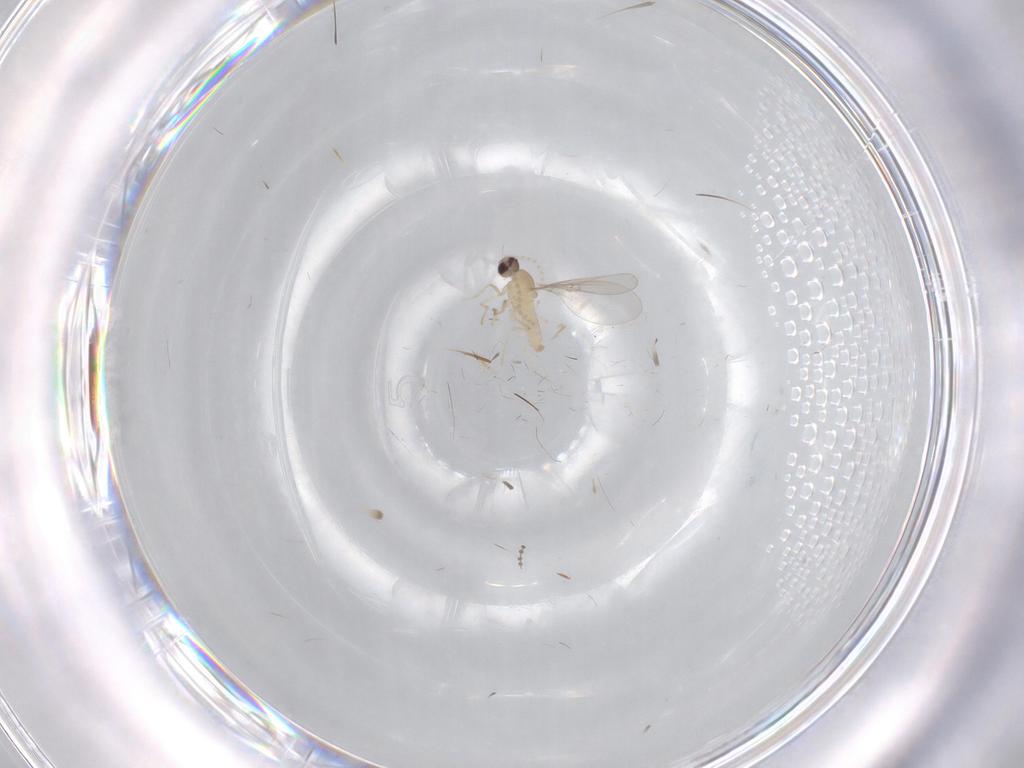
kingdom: Animalia
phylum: Arthropoda
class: Insecta
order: Diptera
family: Cecidomyiidae
